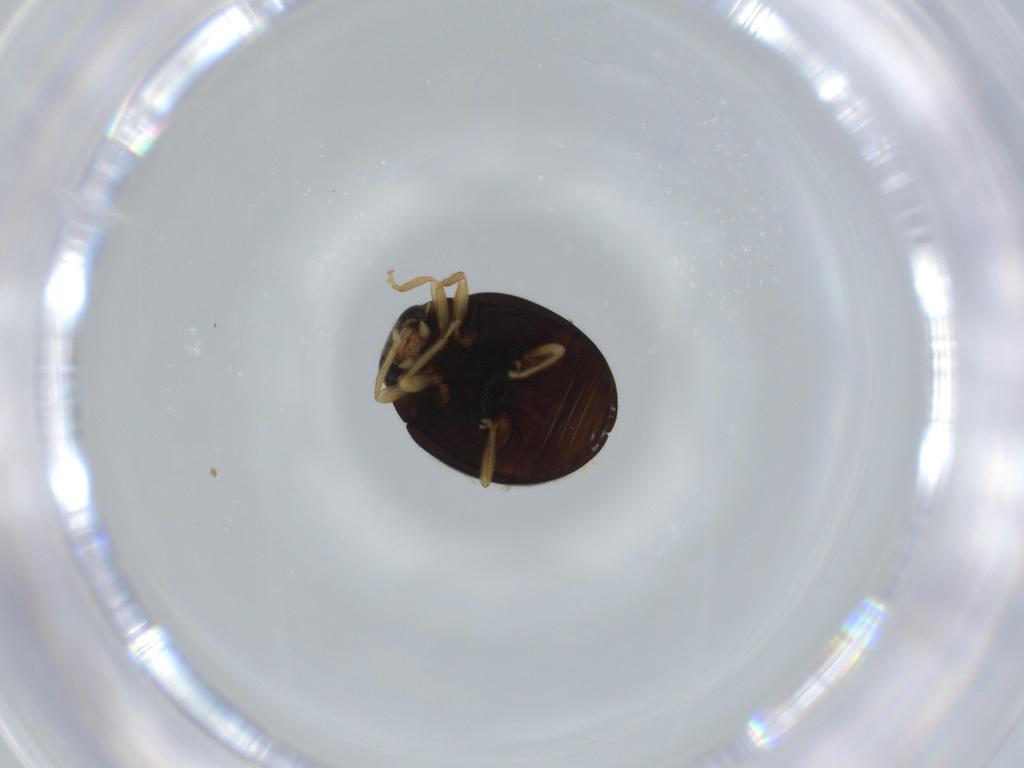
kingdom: Animalia
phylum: Arthropoda
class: Insecta
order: Coleoptera
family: Coccinellidae
